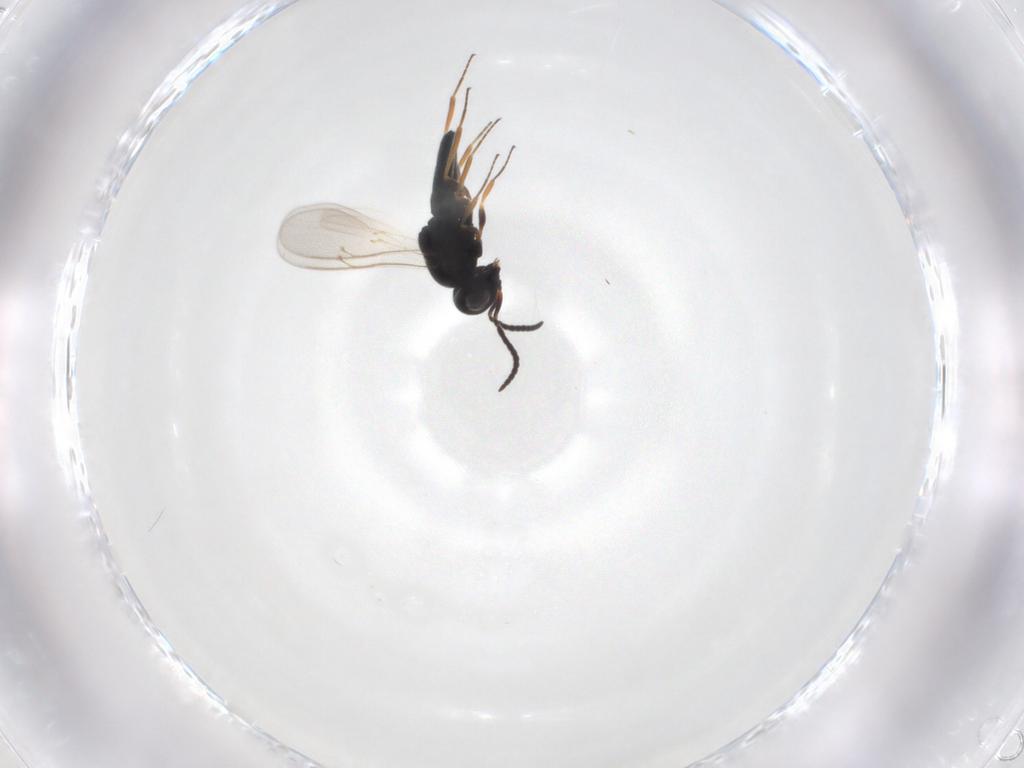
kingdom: Animalia
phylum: Arthropoda
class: Insecta
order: Hymenoptera
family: Scelionidae
